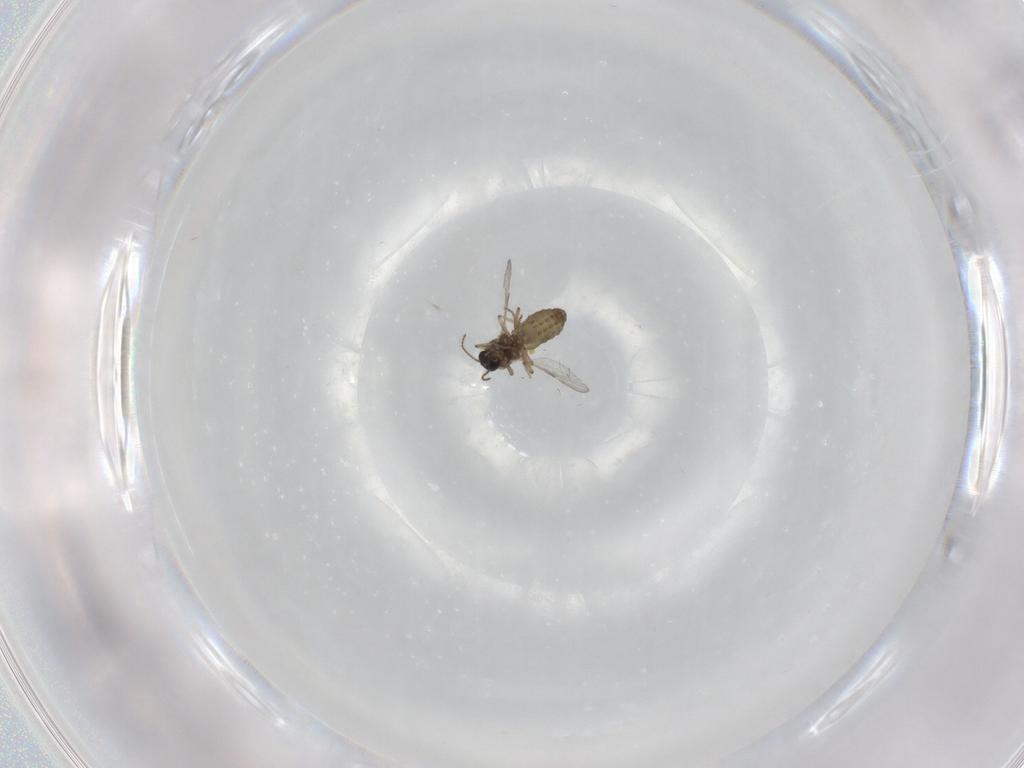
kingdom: Animalia
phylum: Arthropoda
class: Insecta
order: Diptera
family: Ceratopogonidae
